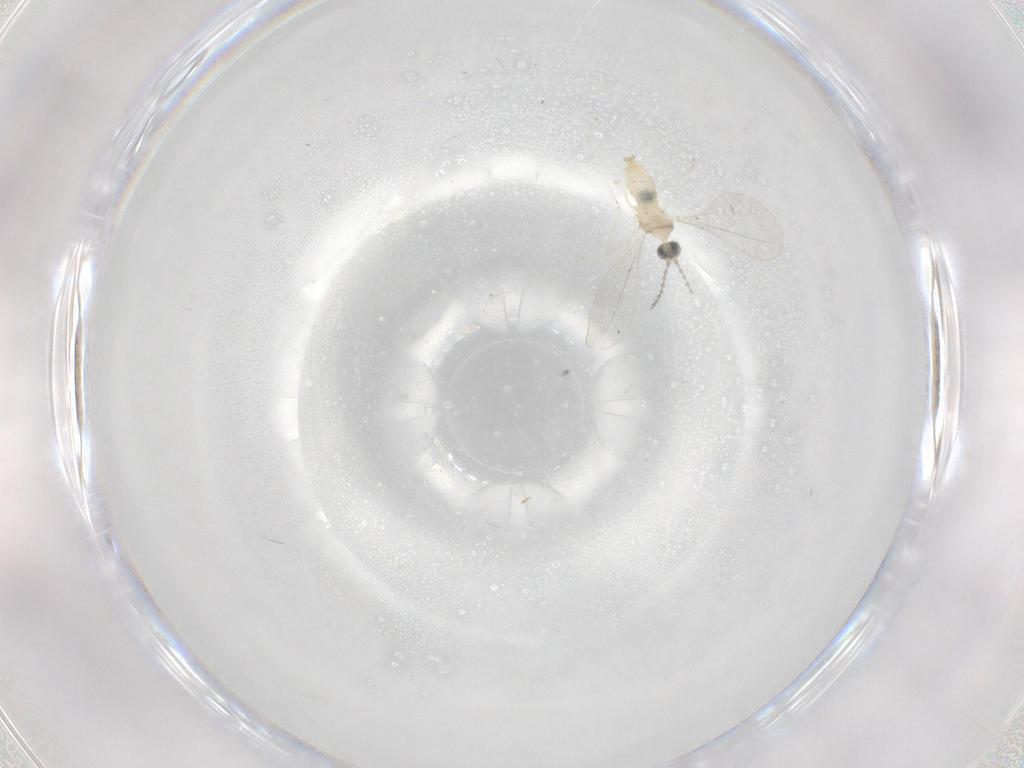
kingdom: Animalia
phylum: Arthropoda
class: Insecta
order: Diptera
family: Cecidomyiidae
